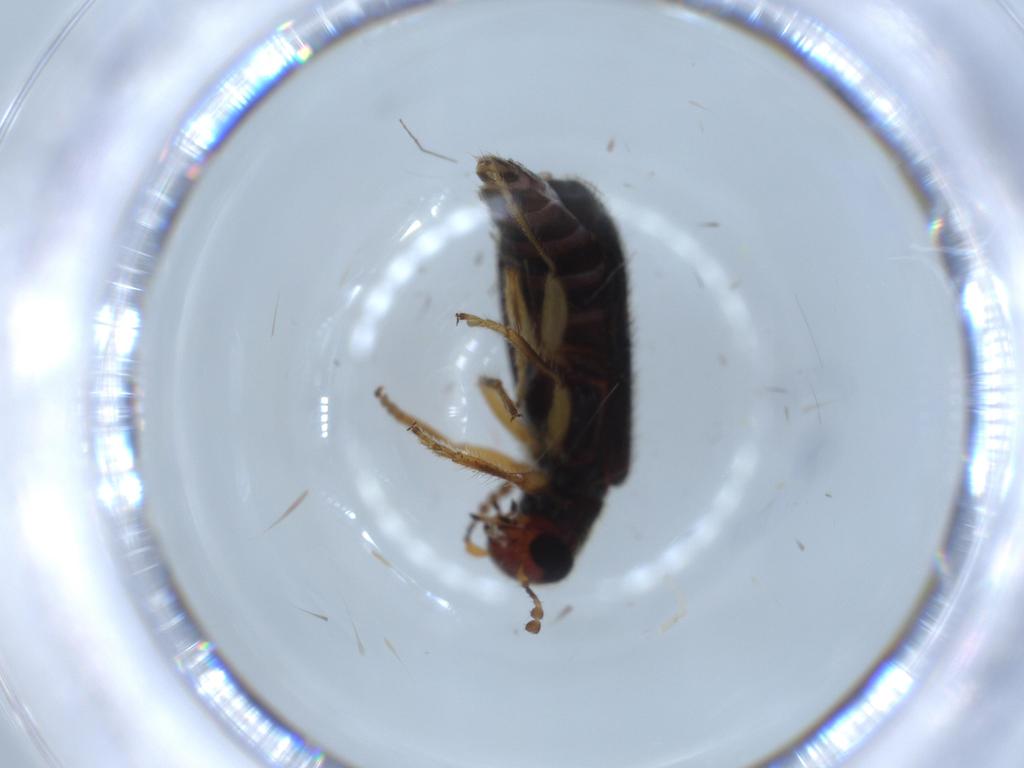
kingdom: Animalia
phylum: Arthropoda
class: Insecta
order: Coleoptera
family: Cleridae
